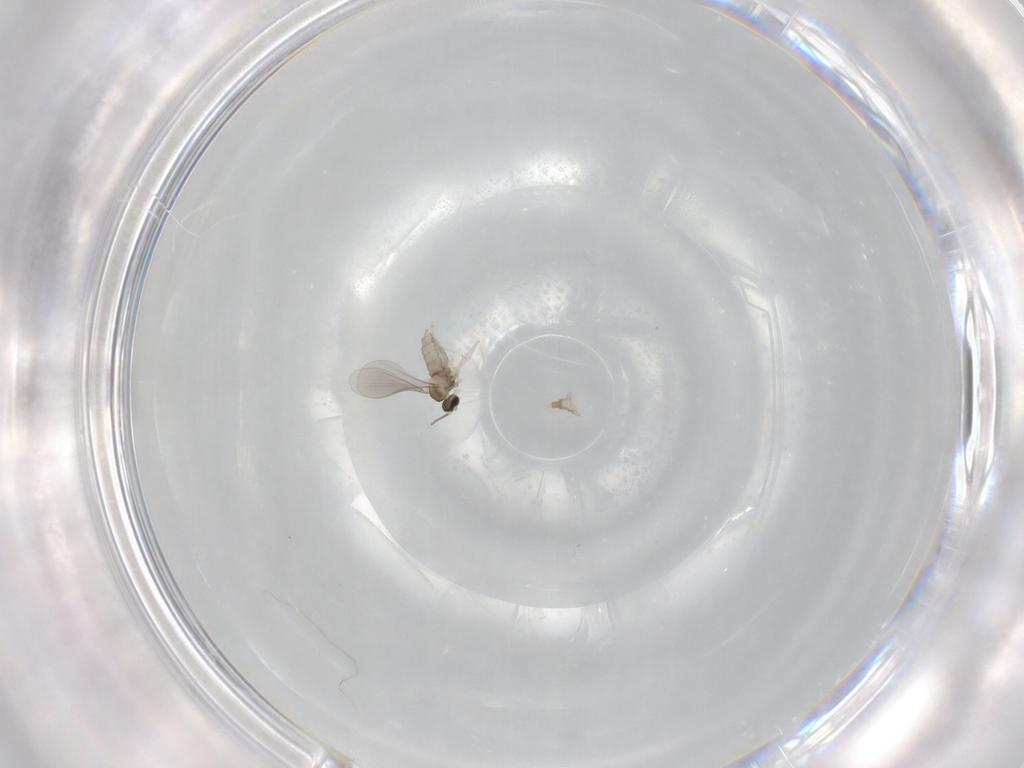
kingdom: Animalia
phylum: Arthropoda
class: Insecta
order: Diptera
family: Cecidomyiidae
